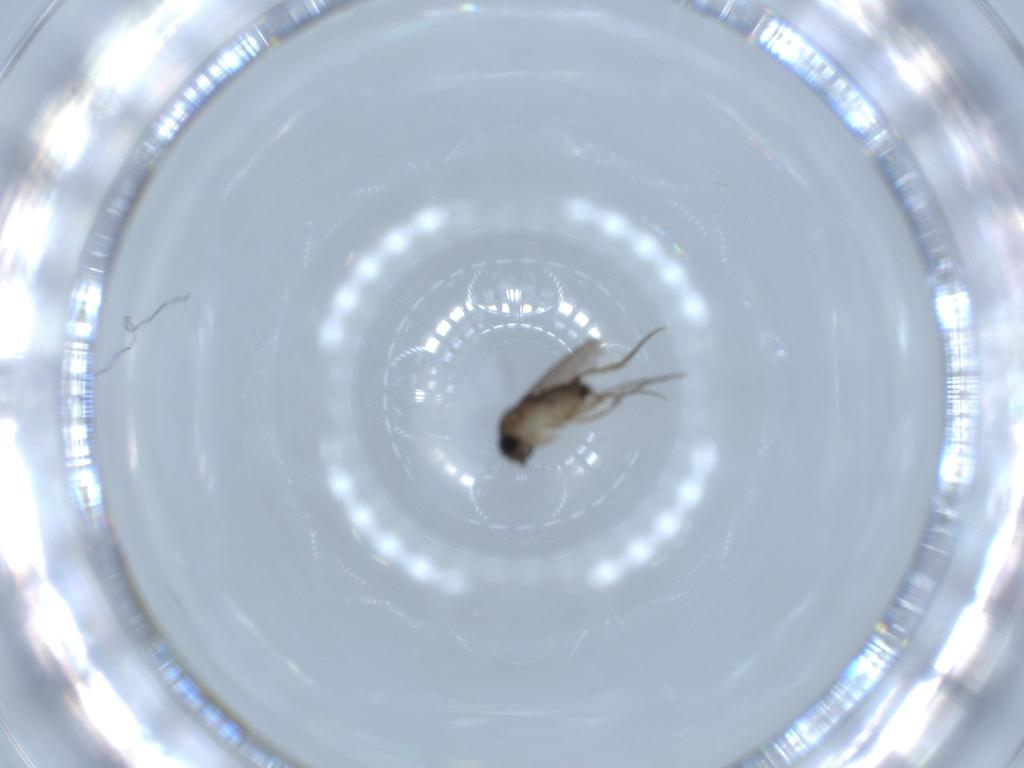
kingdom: Animalia
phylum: Arthropoda
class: Insecta
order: Diptera
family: Phoridae
